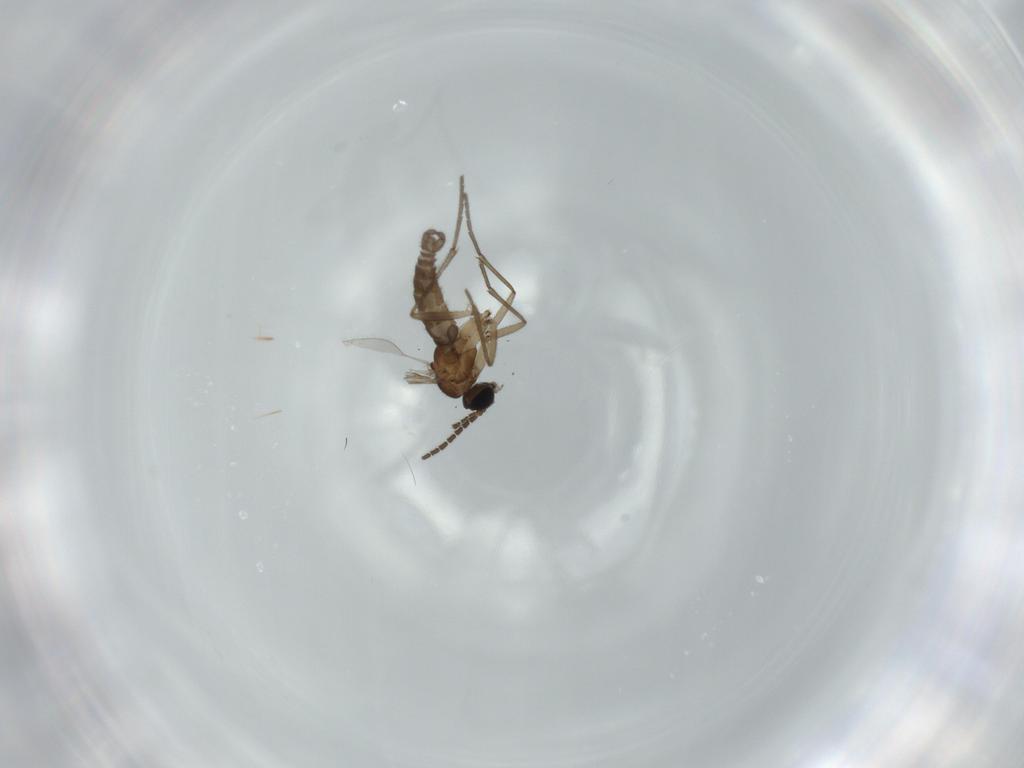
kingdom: Animalia
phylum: Arthropoda
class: Insecta
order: Diptera
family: Sciaridae
